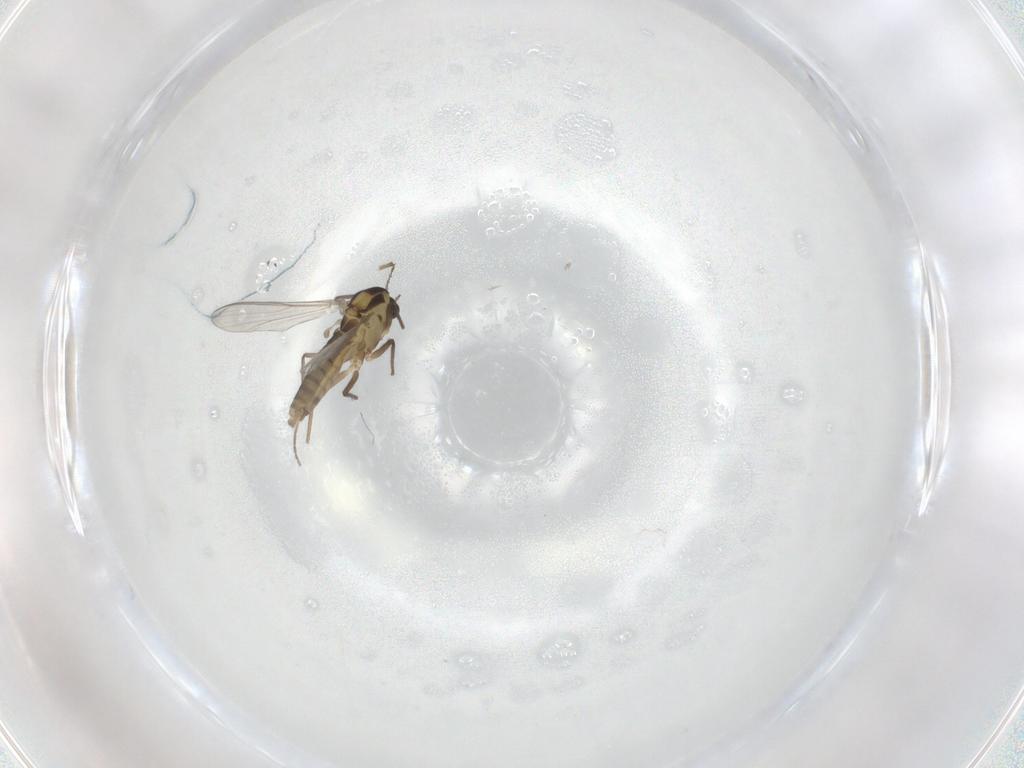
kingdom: Animalia
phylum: Arthropoda
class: Insecta
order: Diptera
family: Chironomidae
